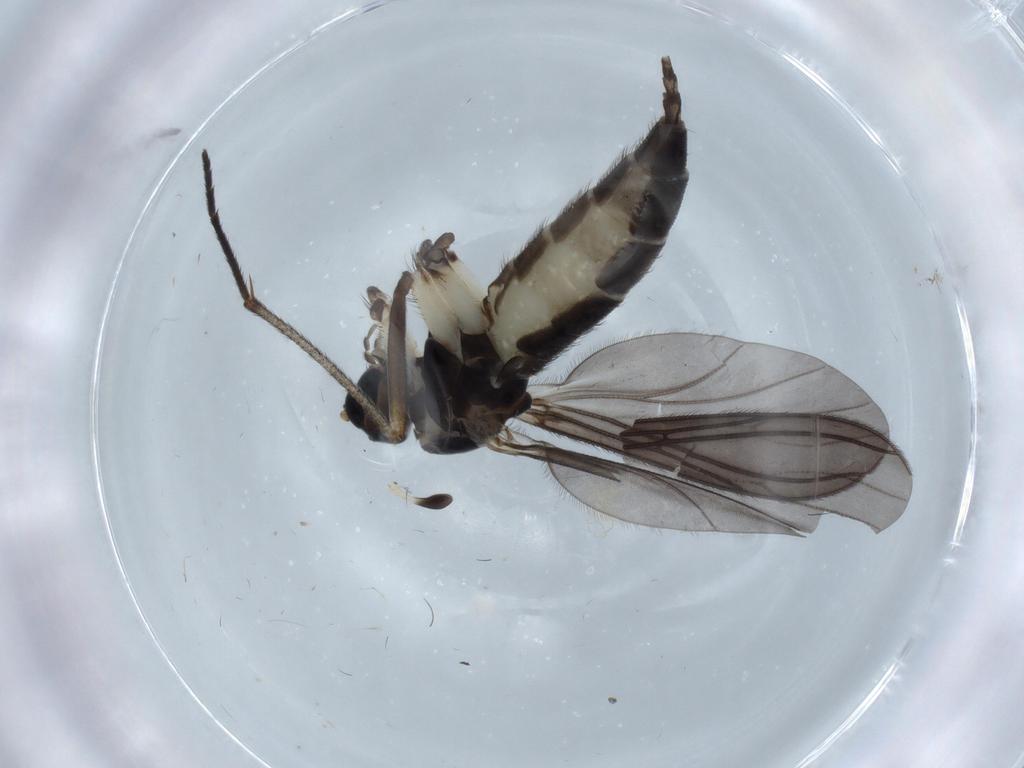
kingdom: Animalia
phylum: Arthropoda
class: Insecta
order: Diptera
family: Sciaridae
